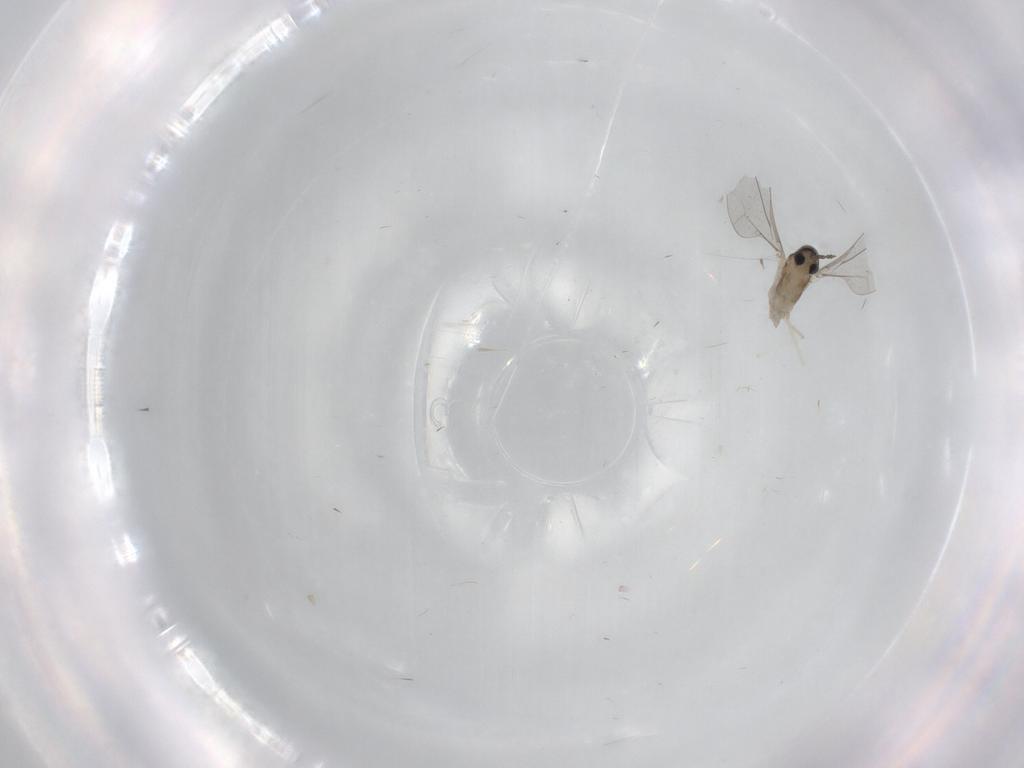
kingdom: Animalia
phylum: Arthropoda
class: Insecta
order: Diptera
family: Cecidomyiidae
